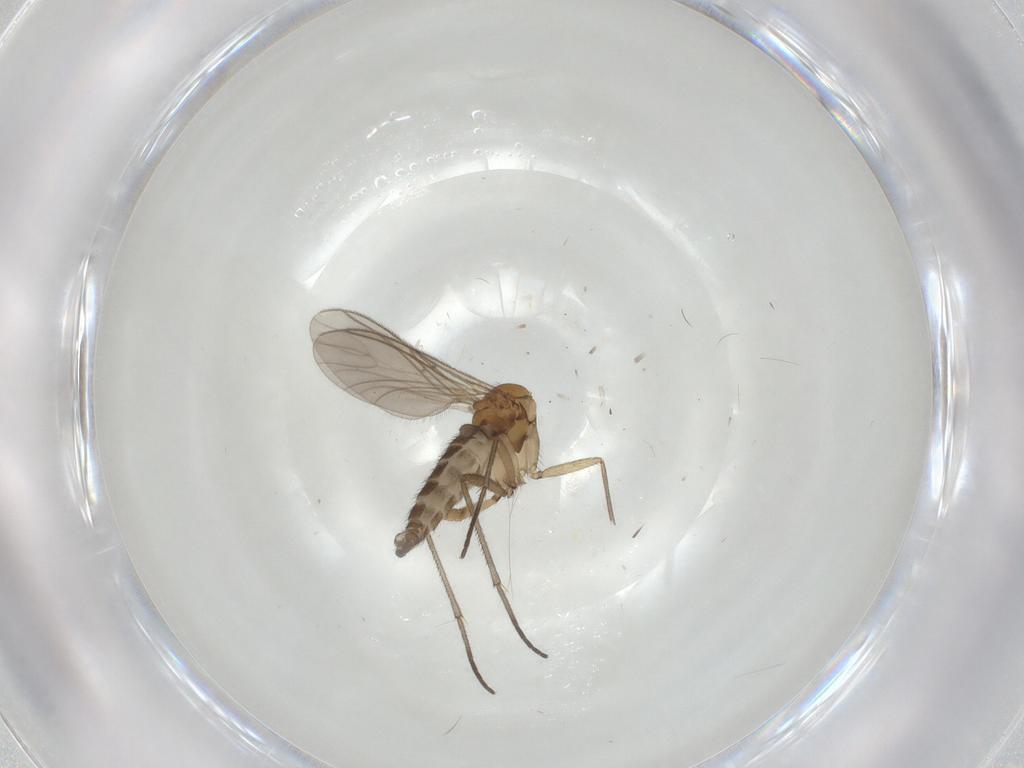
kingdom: Animalia
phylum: Arthropoda
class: Insecta
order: Diptera
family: Sciaridae
